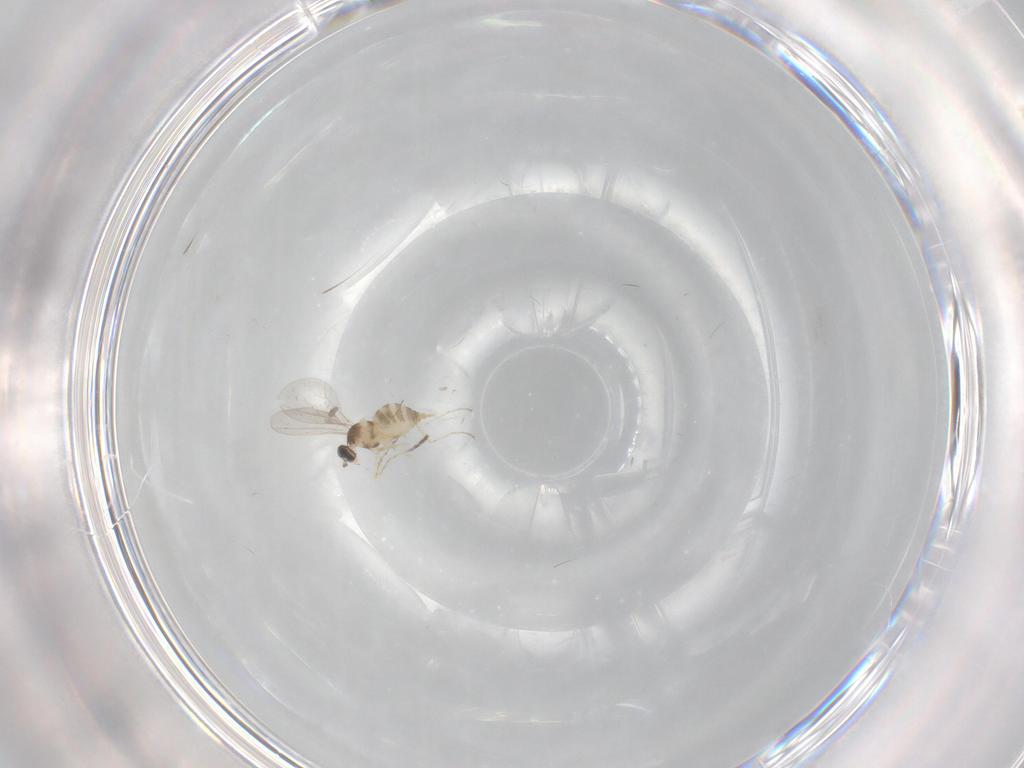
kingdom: Animalia
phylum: Arthropoda
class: Insecta
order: Diptera
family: Cecidomyiidae
